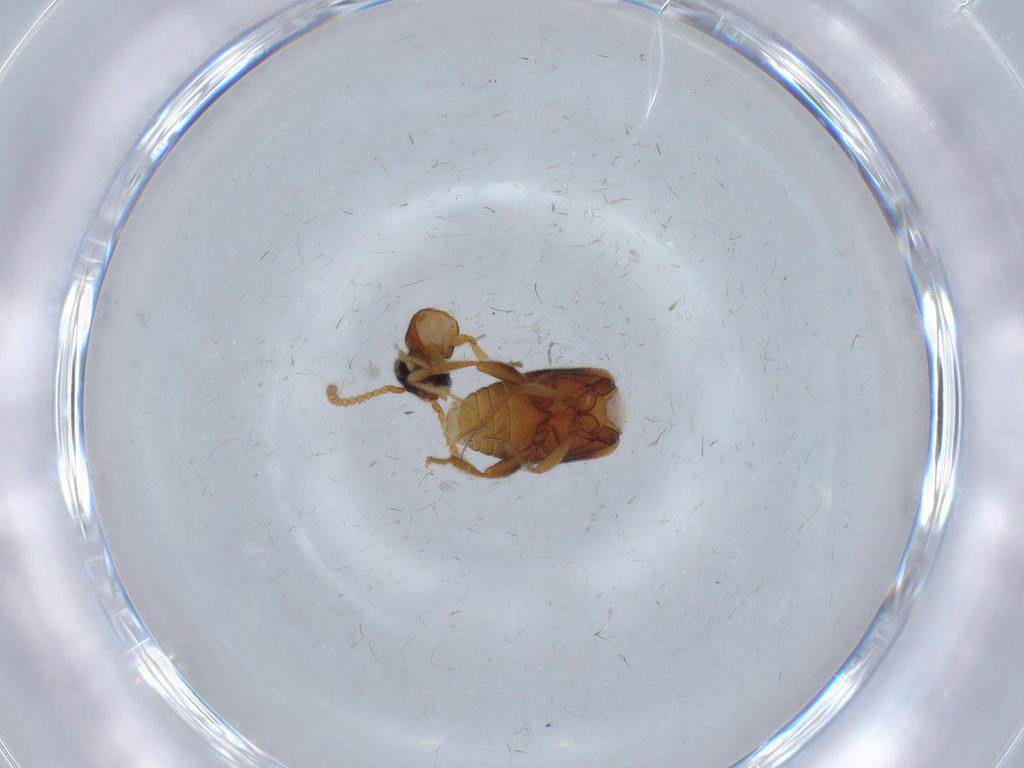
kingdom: Animalia
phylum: Arthropoda
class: Insecta
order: Coleoptera
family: Aderidae
